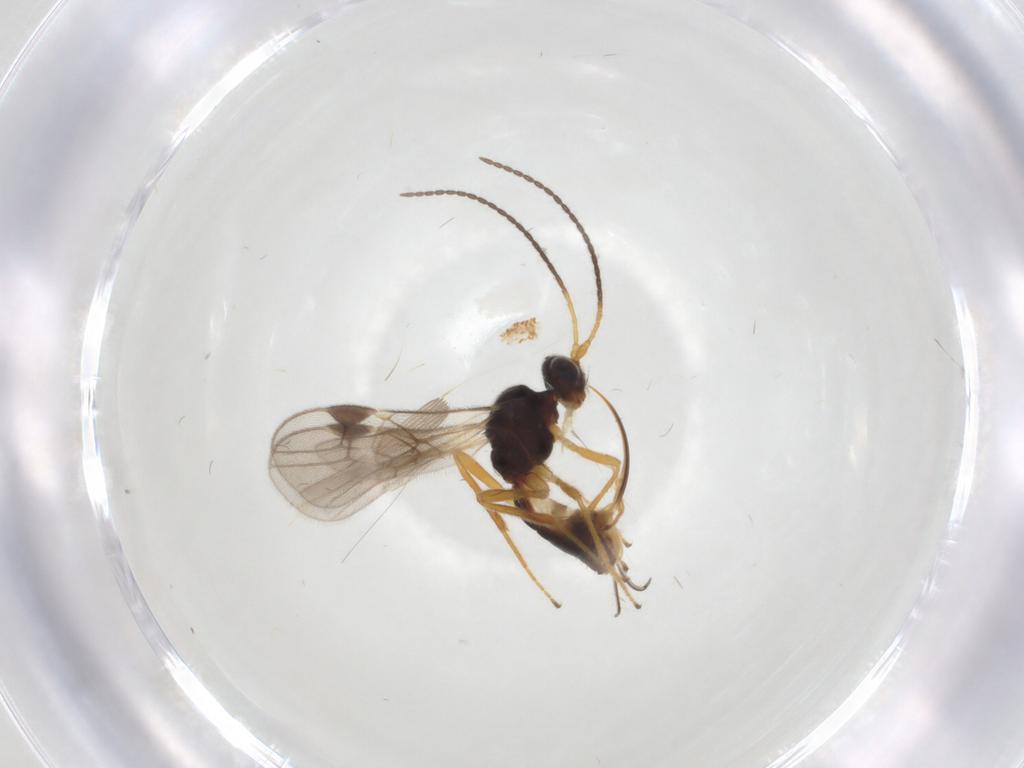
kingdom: Animalia
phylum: Arthropoda
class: Insecta
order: Hymenoptera
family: Braconidae
